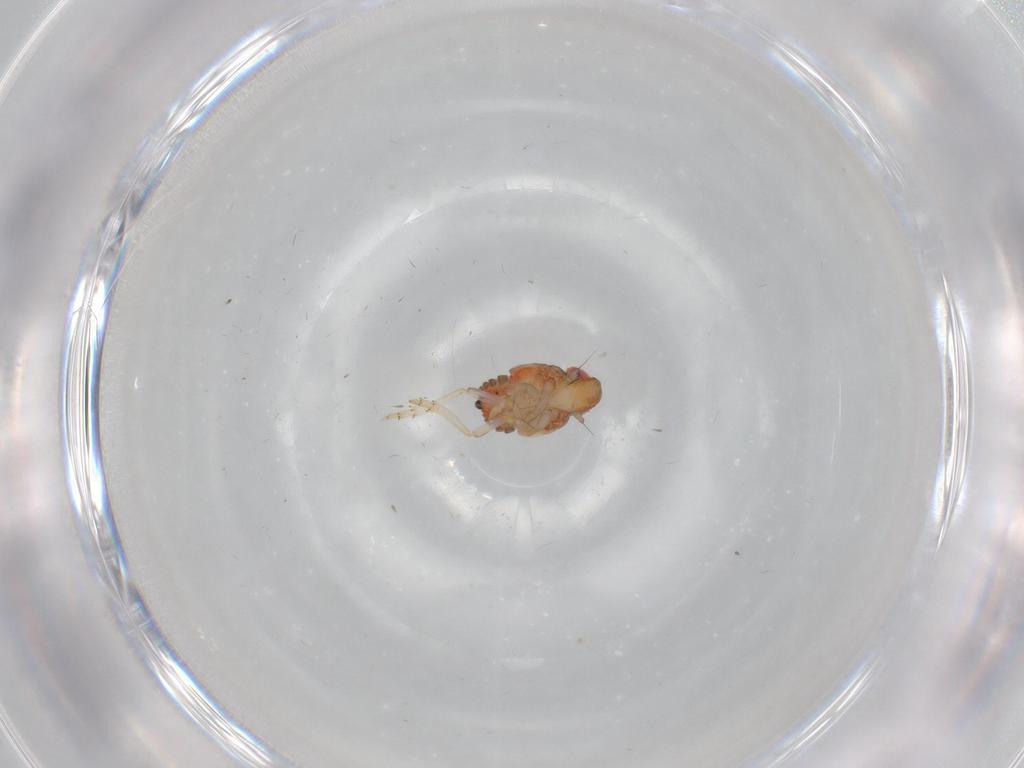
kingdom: Animalia
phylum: Arthropoda
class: Insecta
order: Hemiptera
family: Issidae
